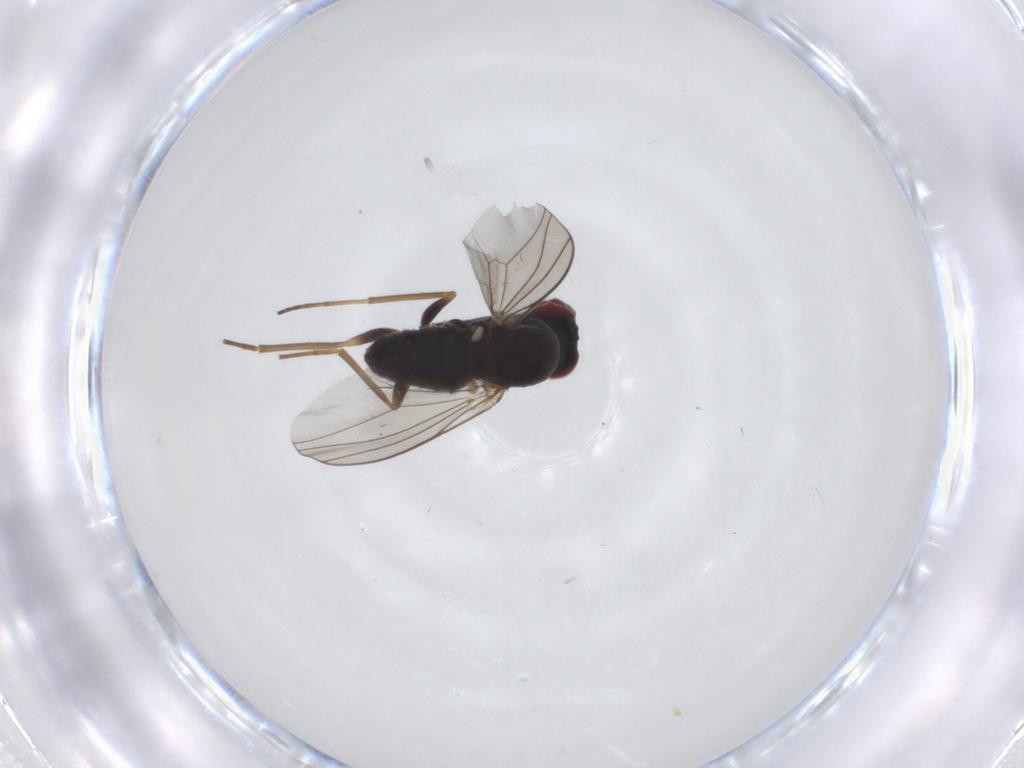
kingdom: Animalia
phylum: Arthropoda
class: Insecta
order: Diptera
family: Dolichopodidae
